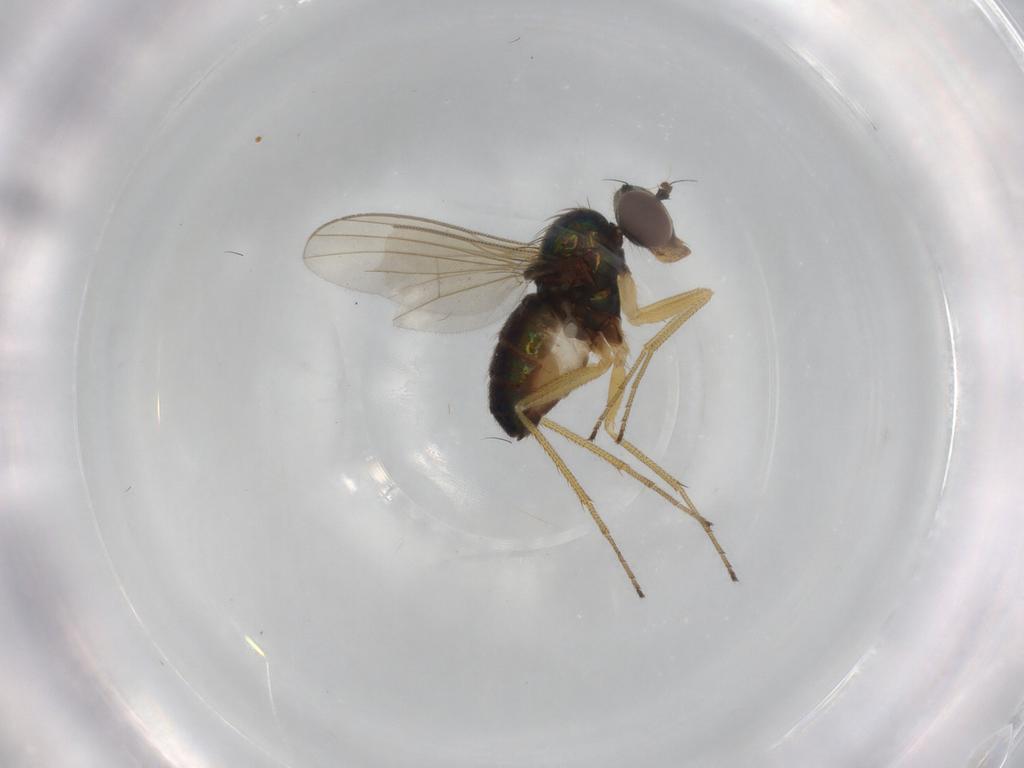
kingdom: Animalia
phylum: Arthropoda
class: Insecta
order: Diptera
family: Dolichopodidae
